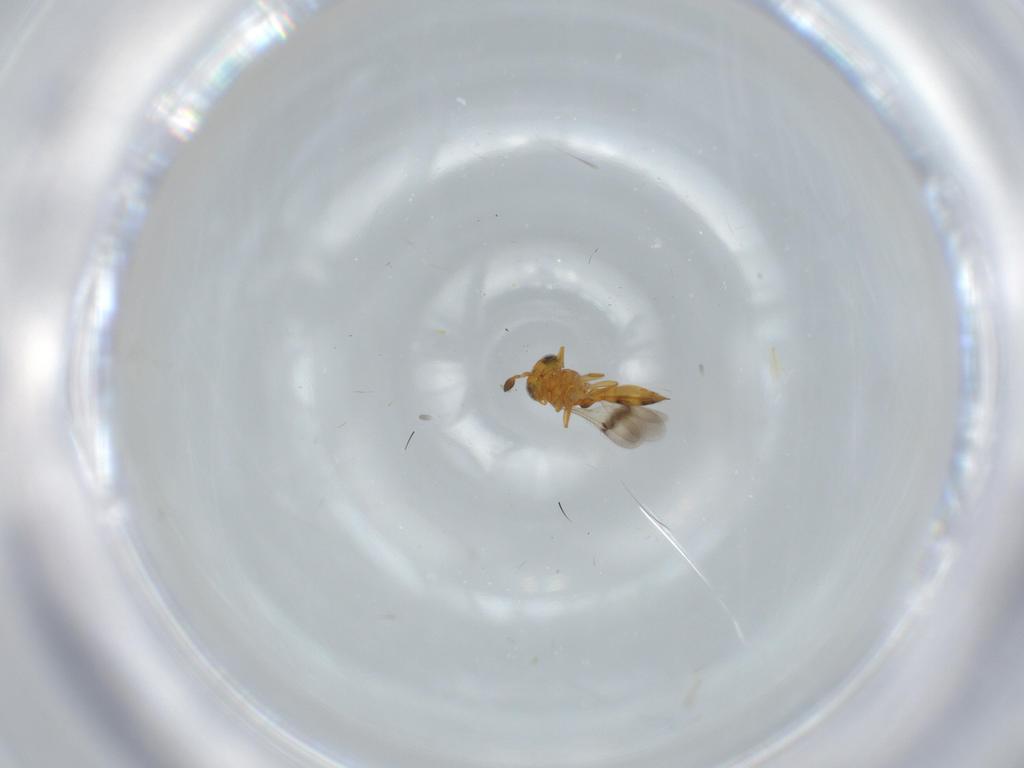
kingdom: Animalia
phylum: Arthropoda
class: Insecta
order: Hymenoptera
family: Scelionidae
